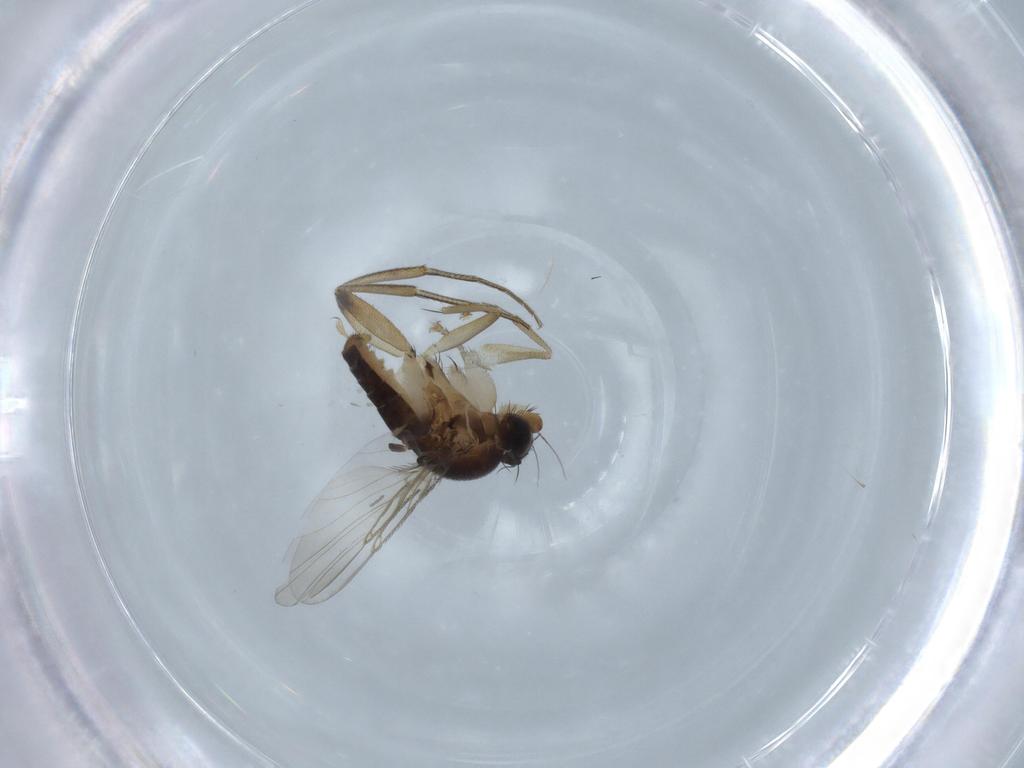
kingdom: Animalia
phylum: Arthropoda
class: Insecta
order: Diptera
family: Phoridae
